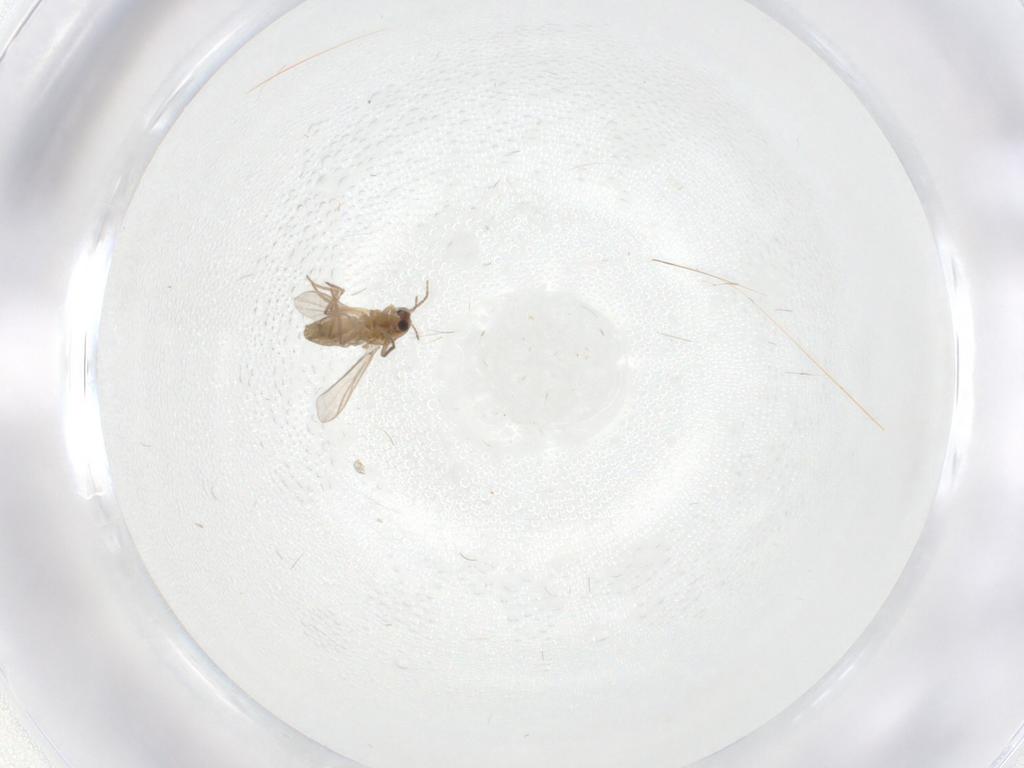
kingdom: Animalia
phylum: Arthropoda
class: Insecta
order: Diptera
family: Chironomidae
